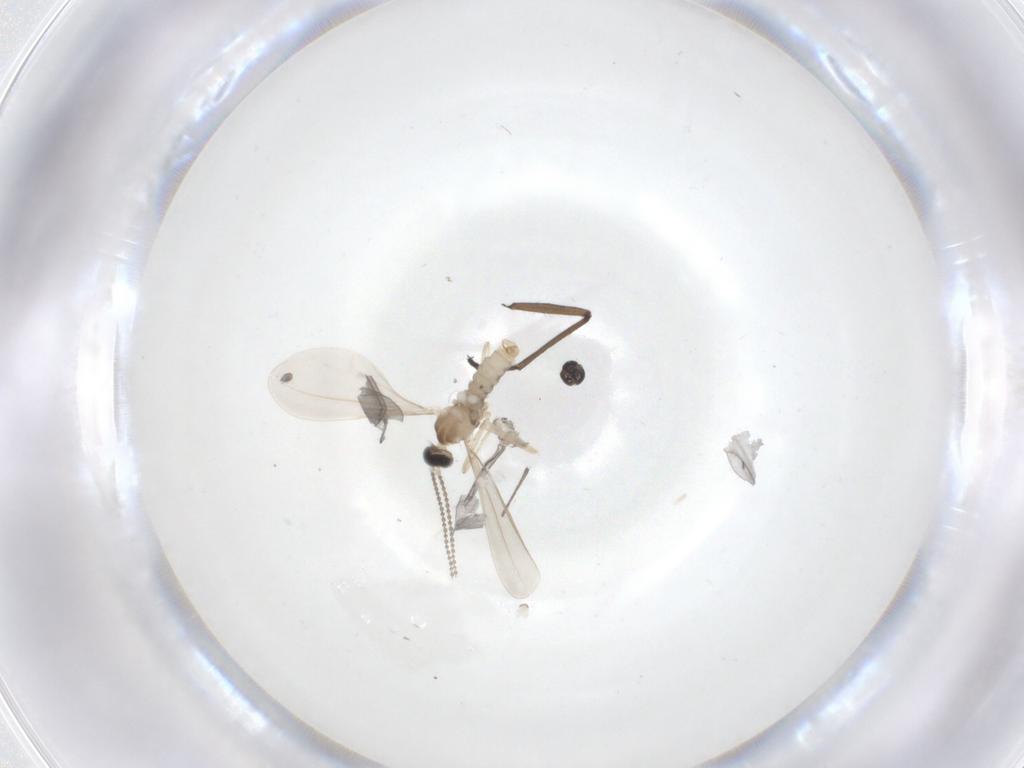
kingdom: Animalia
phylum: Arthropoda
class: Insecta
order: Diptera
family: Cecidomyiidae
